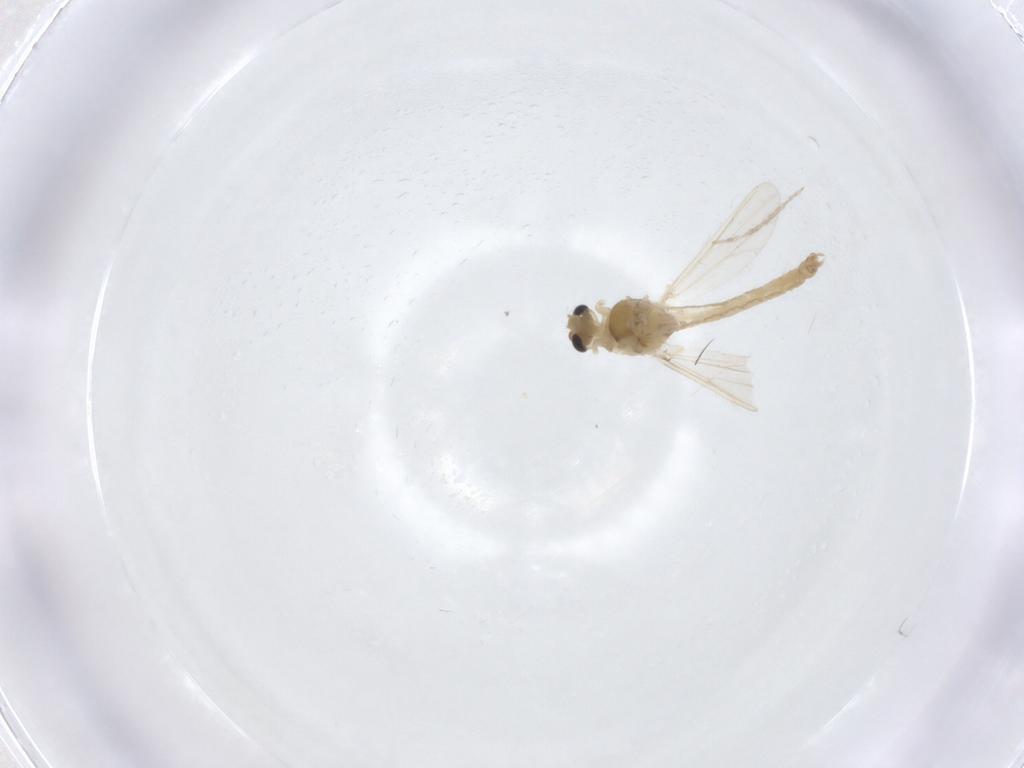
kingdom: Animalia
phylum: Arthropoda
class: Insecta
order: Diptera
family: Chironomidae
